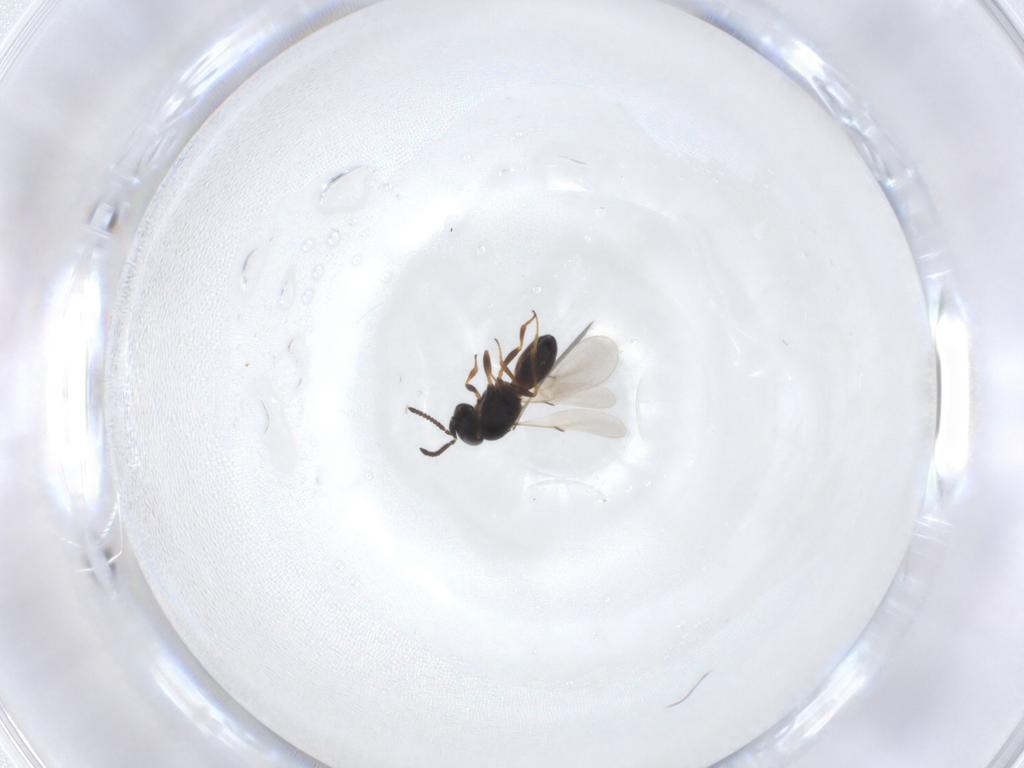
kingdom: Animalia
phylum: Arthropoda
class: Insecta
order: Hymenoptera
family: Scelionidae
